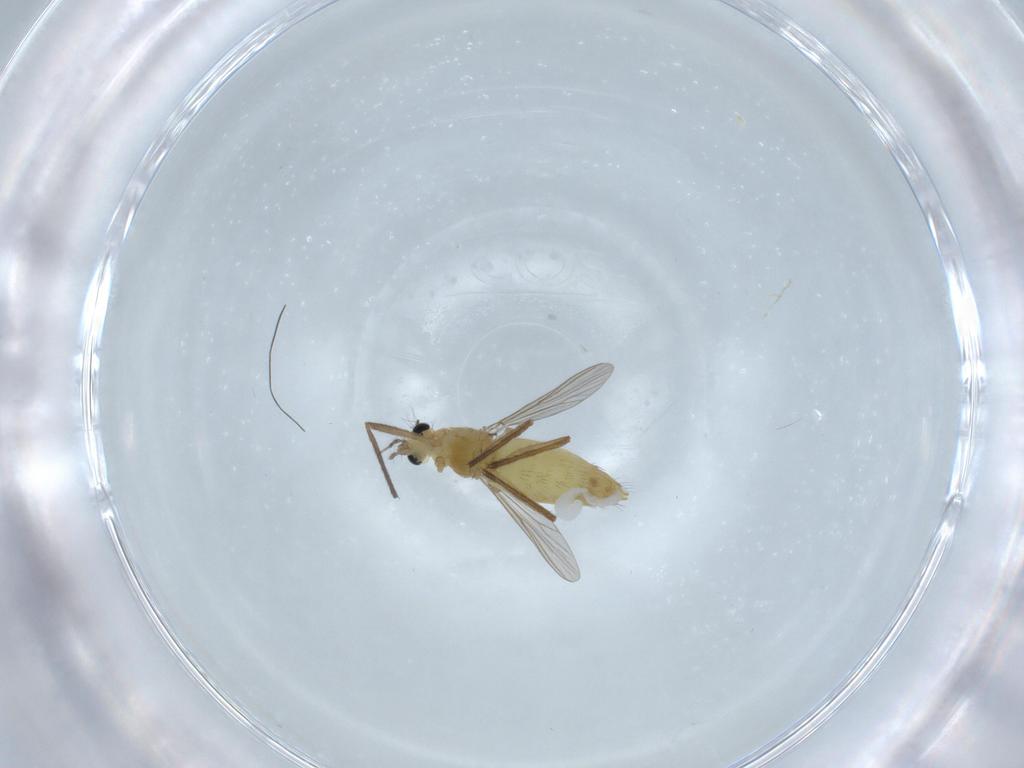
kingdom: Animalia
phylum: Arthropoda
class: Insecta
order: Diptera
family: Chironomidae
